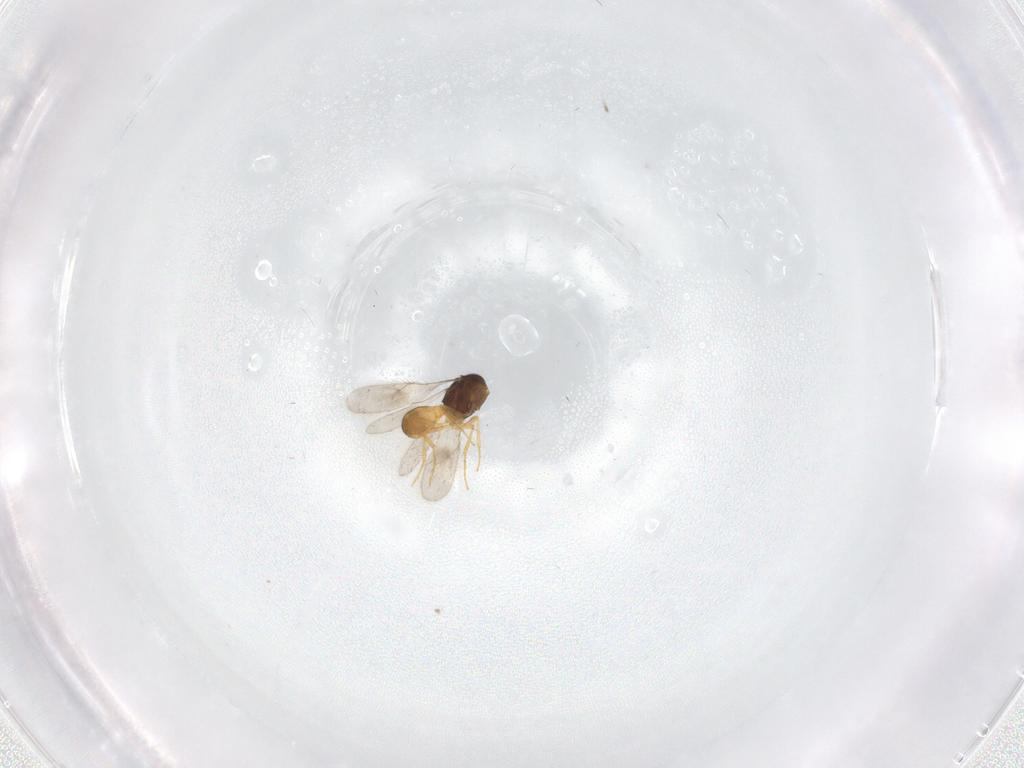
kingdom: Animalia
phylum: Arthropoda
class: Insecta
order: Hymenoptera
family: Scelionidae
